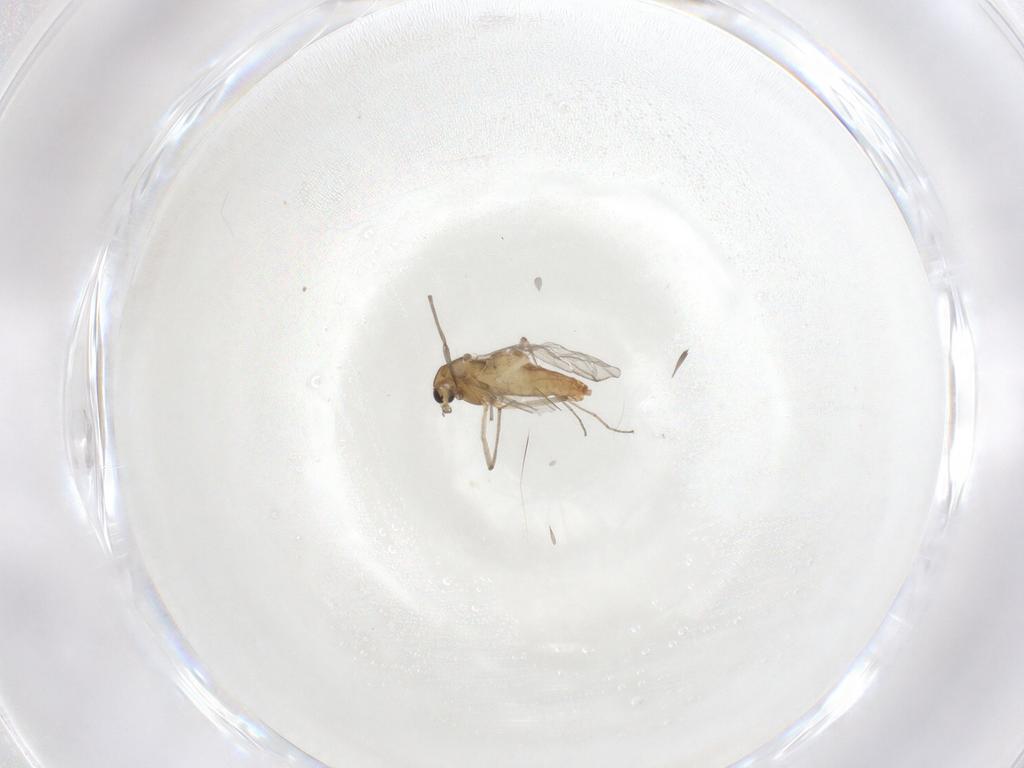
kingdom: Animalia
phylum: Arthropoda
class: Insecta
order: Diptera
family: Chironomidae
